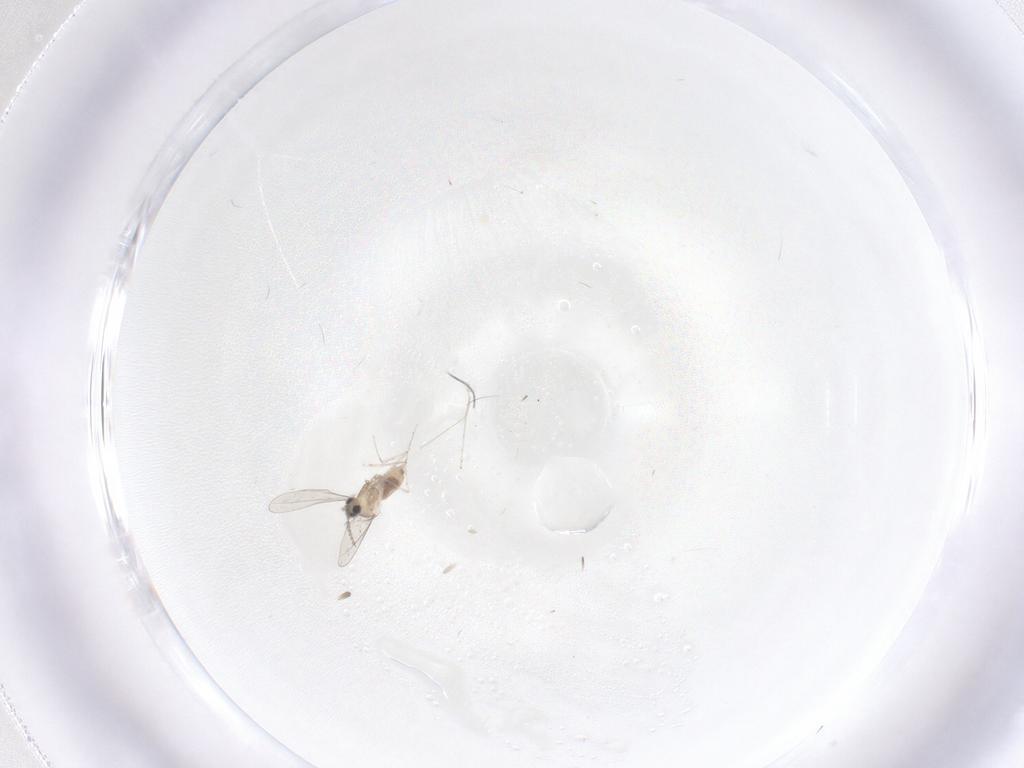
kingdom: Animalia
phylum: Arthropoda
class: Insecta
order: Diptera
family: Cecidomyiidae
